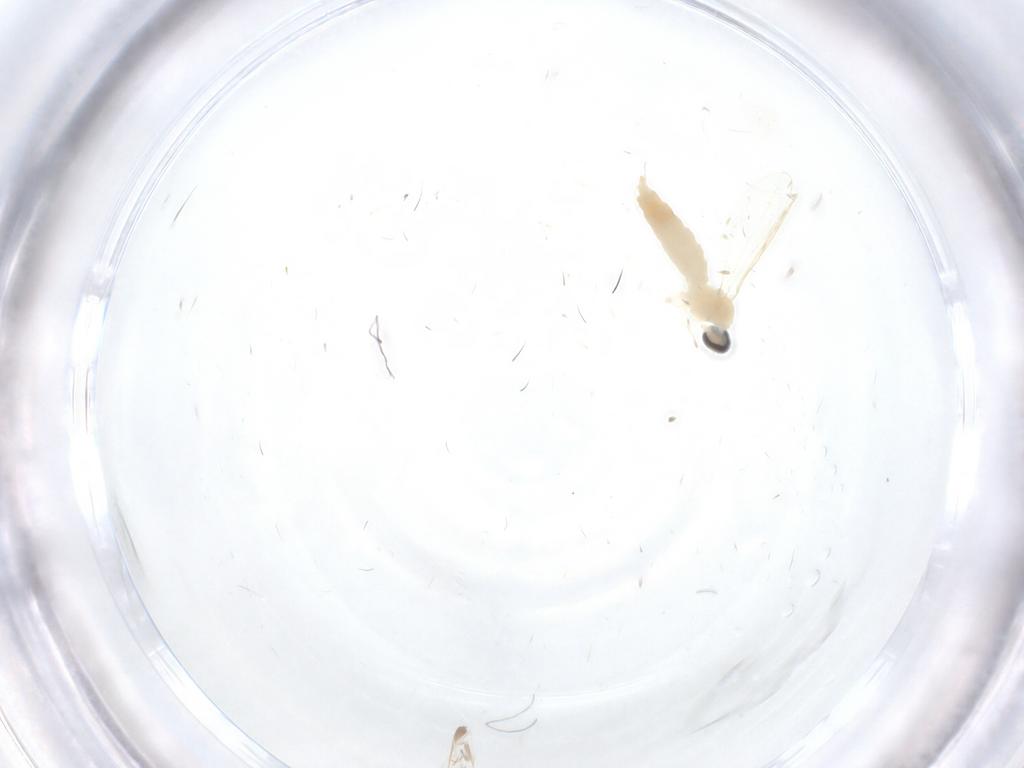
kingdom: Animalia
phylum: Arthropoda
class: Insecta
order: Diptera
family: Cecidomyiidae
